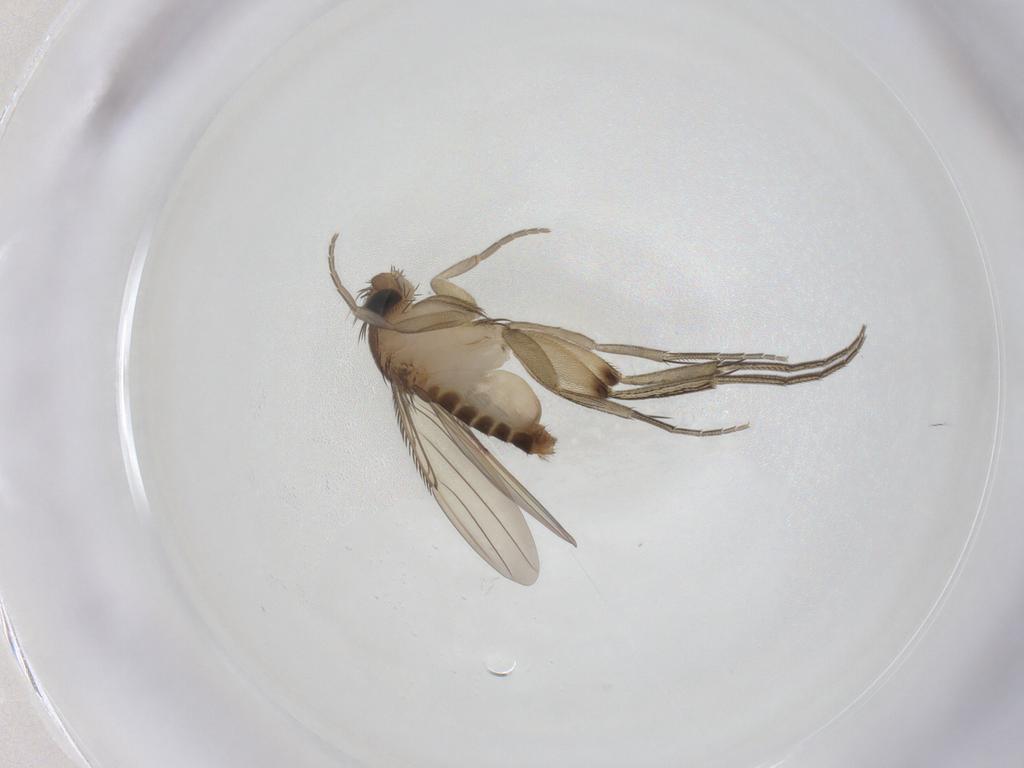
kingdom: Animalia
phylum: Arthropoda
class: Insecta
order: Diptera
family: Phoridae
